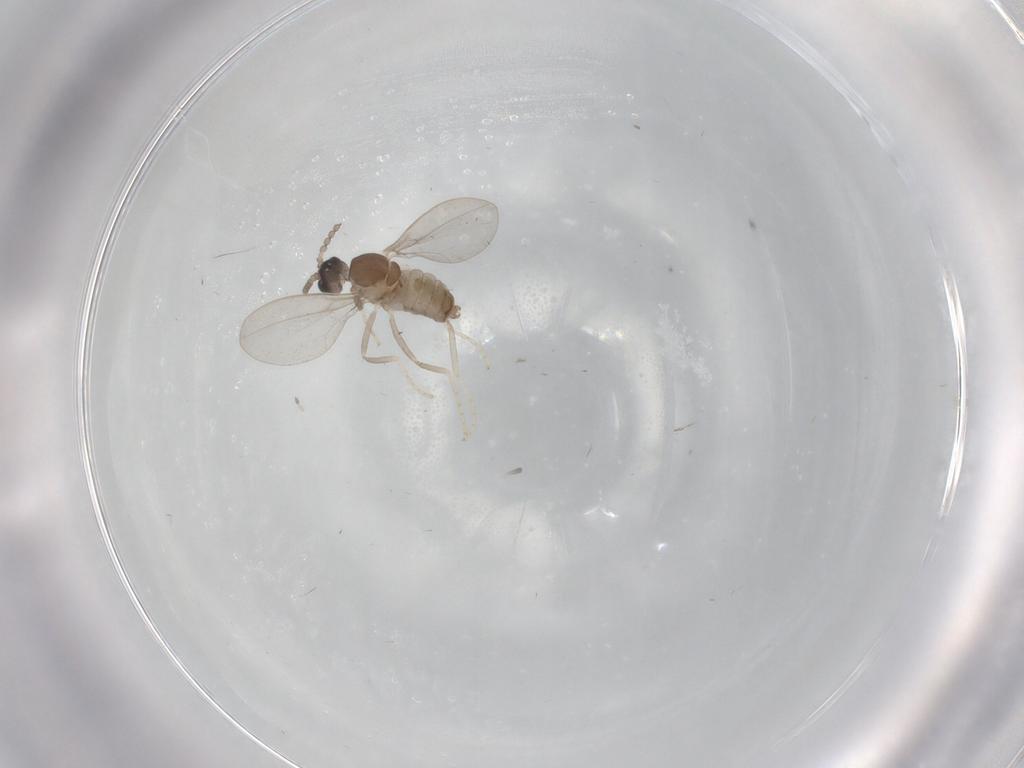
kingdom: Animalia
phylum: Arthropoda
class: Insecta
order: Diptera
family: Cecidomyiidae
